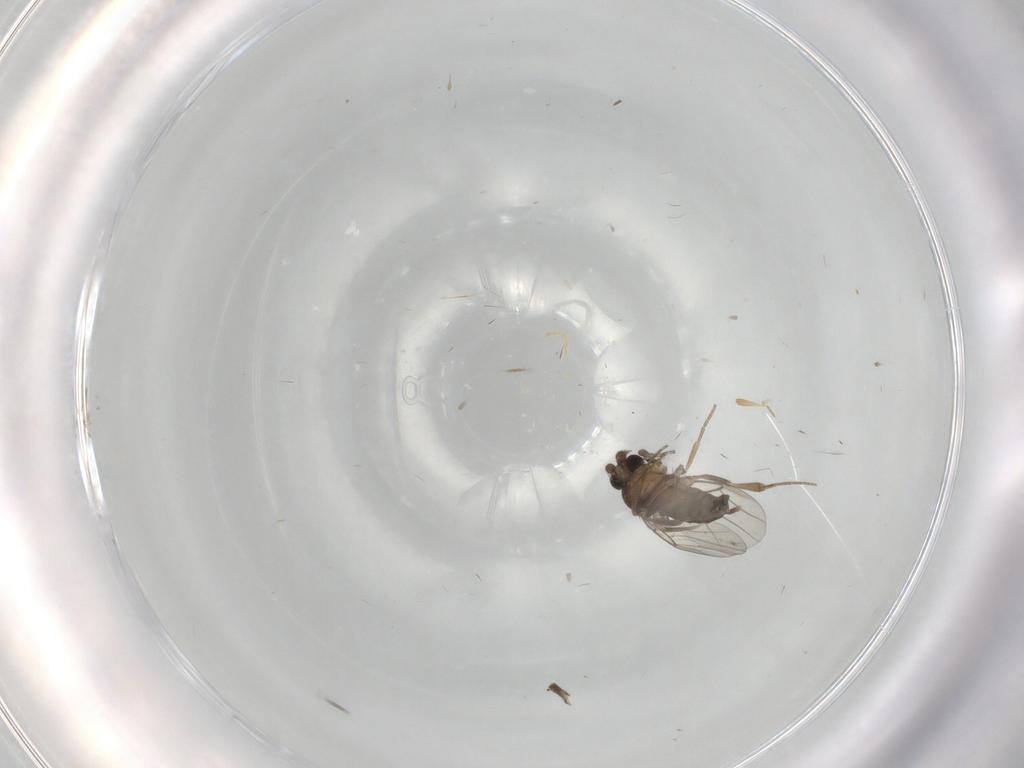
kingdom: Animalia
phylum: Arthropoda
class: Insecta
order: Diptera
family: Phoridae
